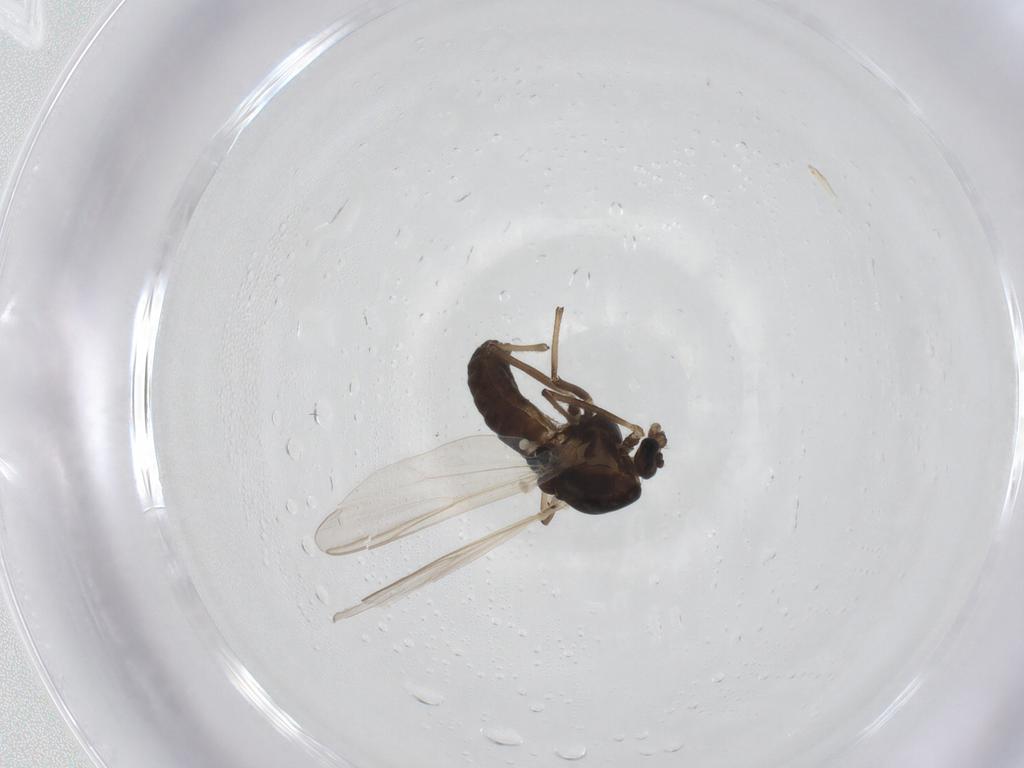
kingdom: Animalia
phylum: Arthropoda
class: Insecta
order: Diptera
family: Chironomidae
